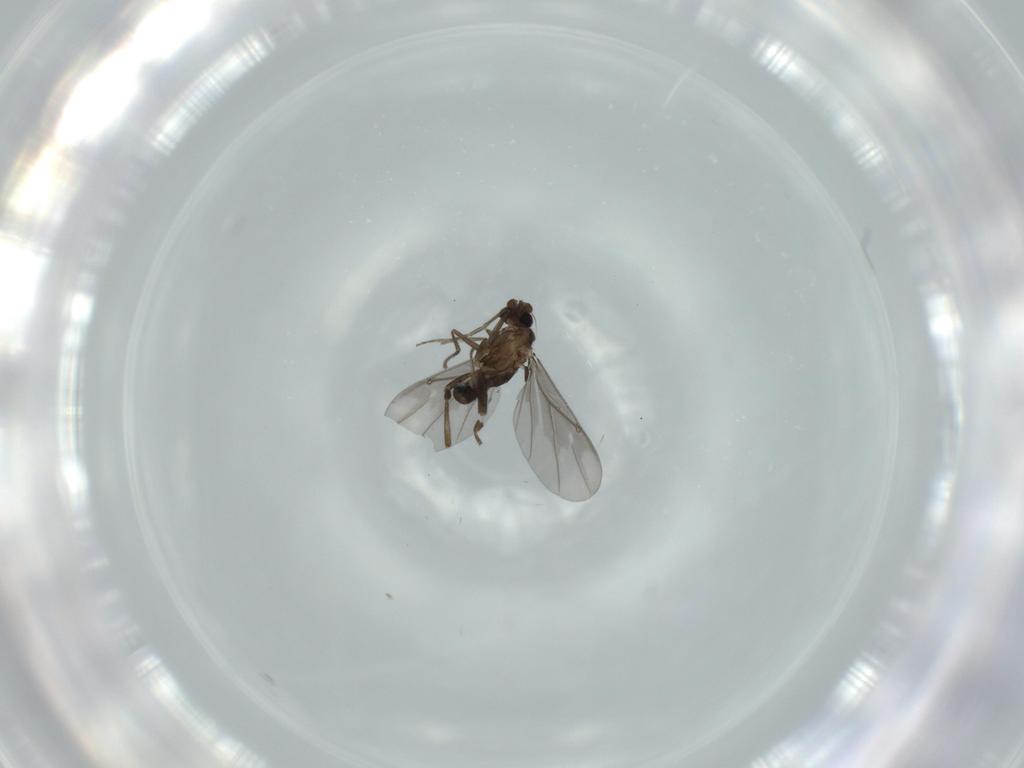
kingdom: Animalia
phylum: Arthropoda
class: Insecta
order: Diptera
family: Phoridae
